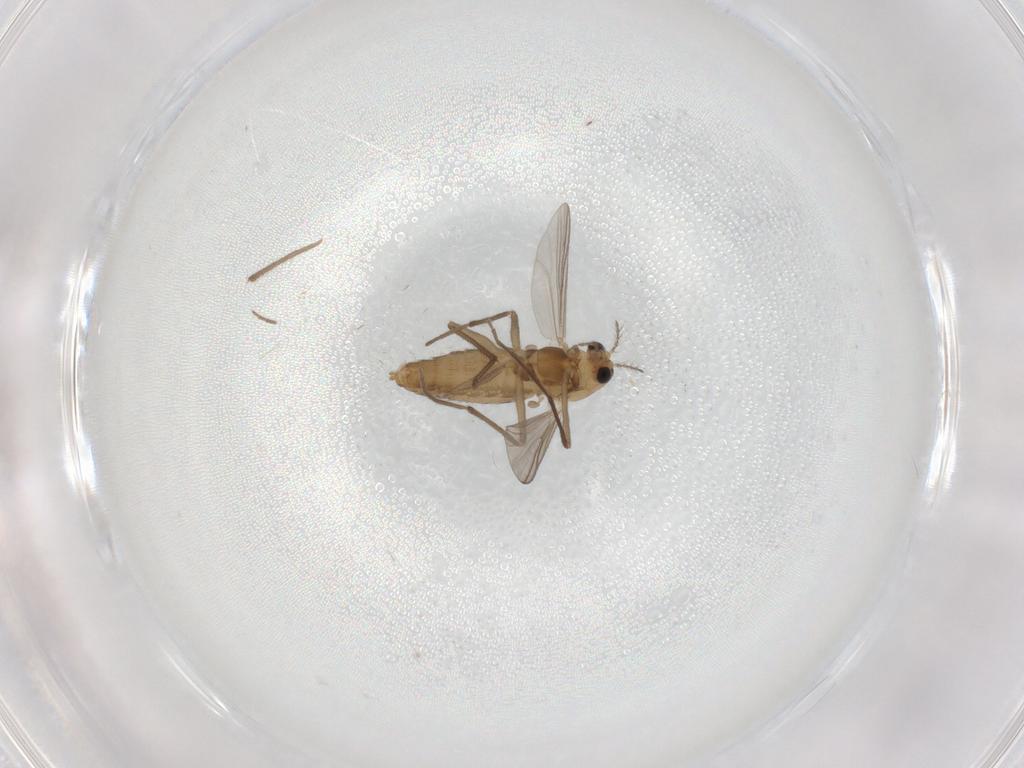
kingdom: Animalia
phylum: Arthropoda
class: Insecta
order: Diptera
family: Chironomidae
